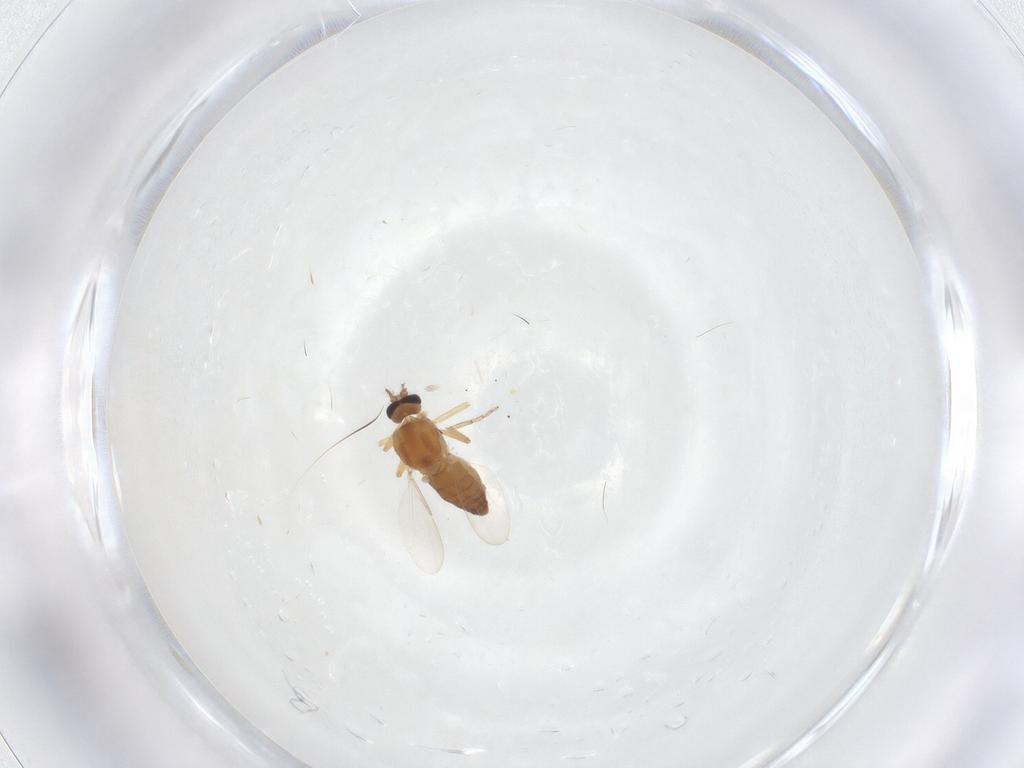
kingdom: Animalia
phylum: Arthropoda
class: Insecta
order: Diptera
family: Ceratopogonidae
